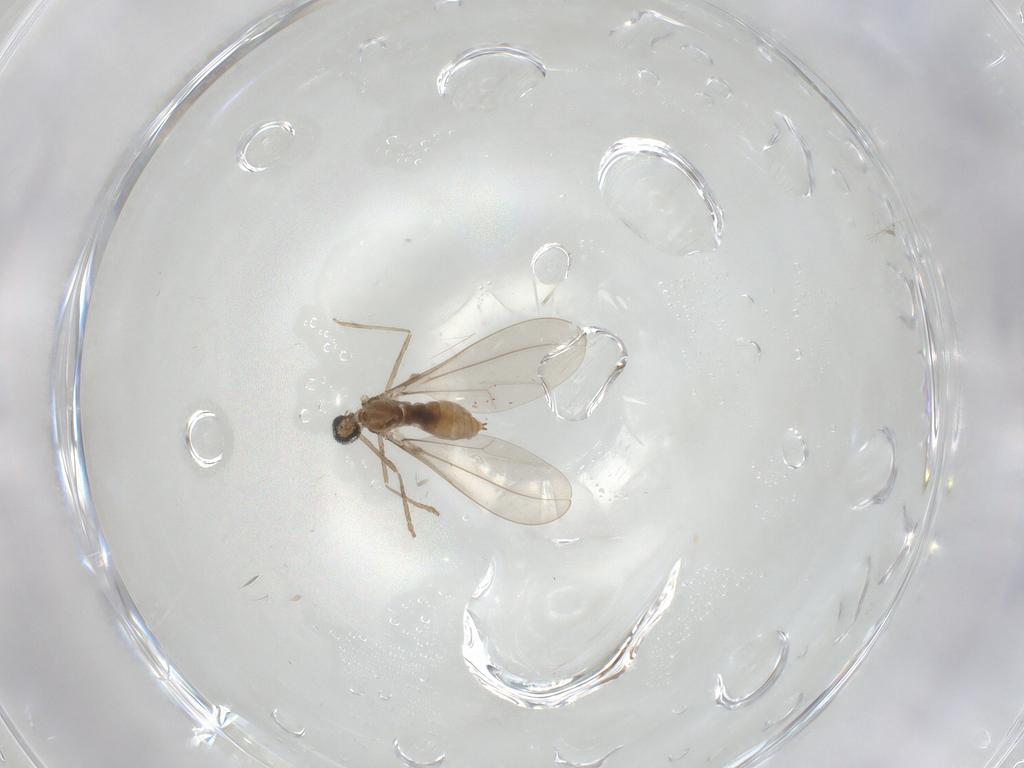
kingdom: Animalia
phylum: Arthropoda
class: Insecta
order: Diptera
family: Cecidomyiidae
